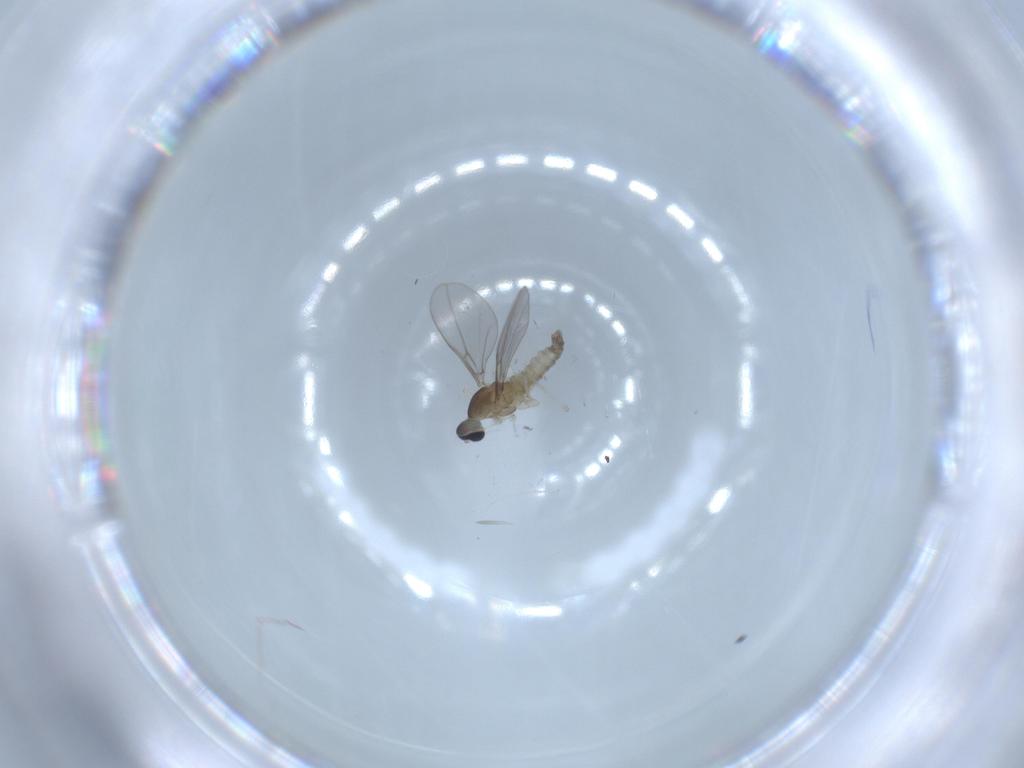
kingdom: Animalia
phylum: Arthropoda
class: Insecta
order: Diptera
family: Cecidomyiidae
